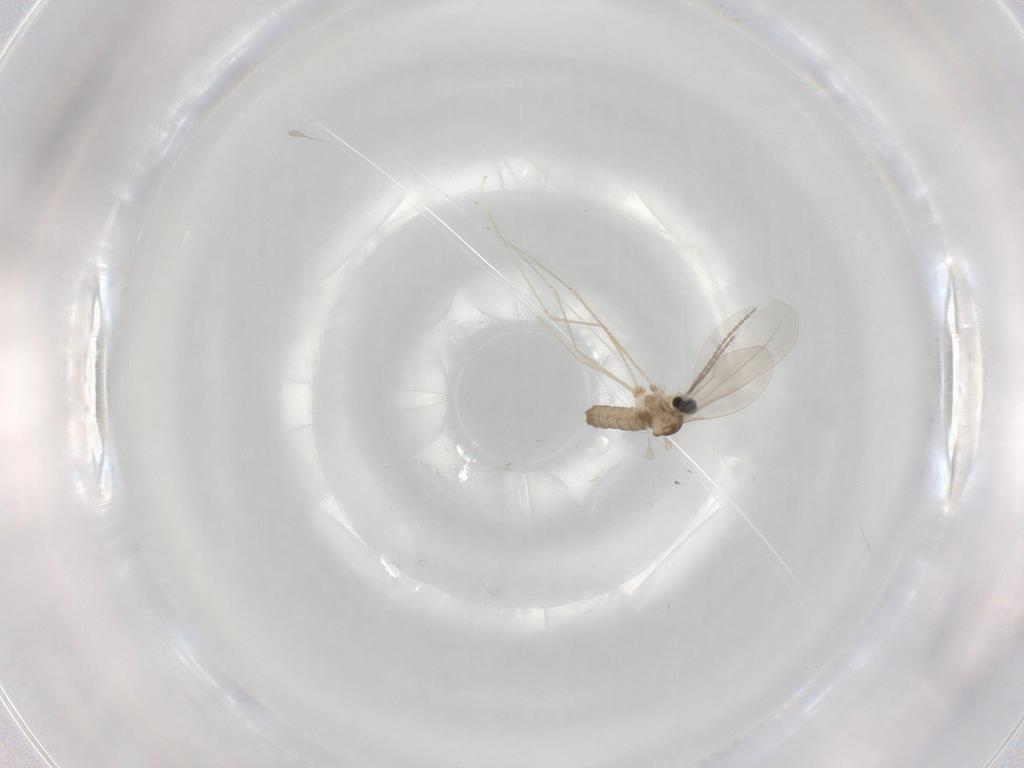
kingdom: Animalia
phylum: Arthropoda
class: Insecta
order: Diptera
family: Cecidomyiidae
